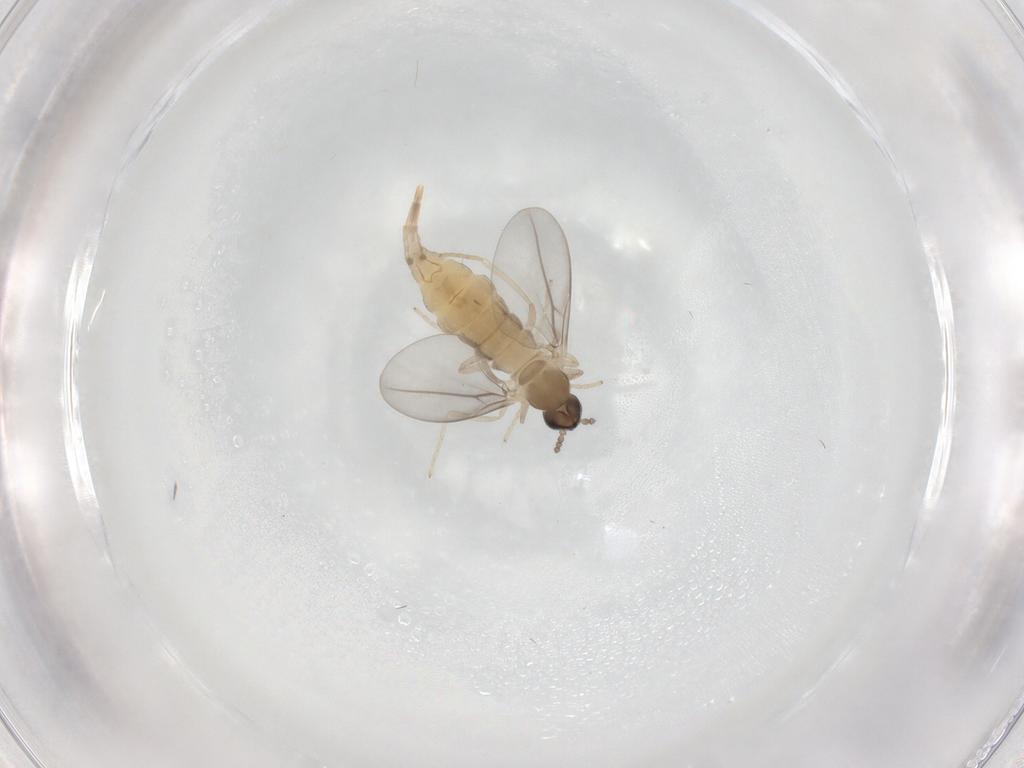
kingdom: Animalia
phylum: Arthropoda
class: Insecta
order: Diptera
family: Cecidomyiidae
